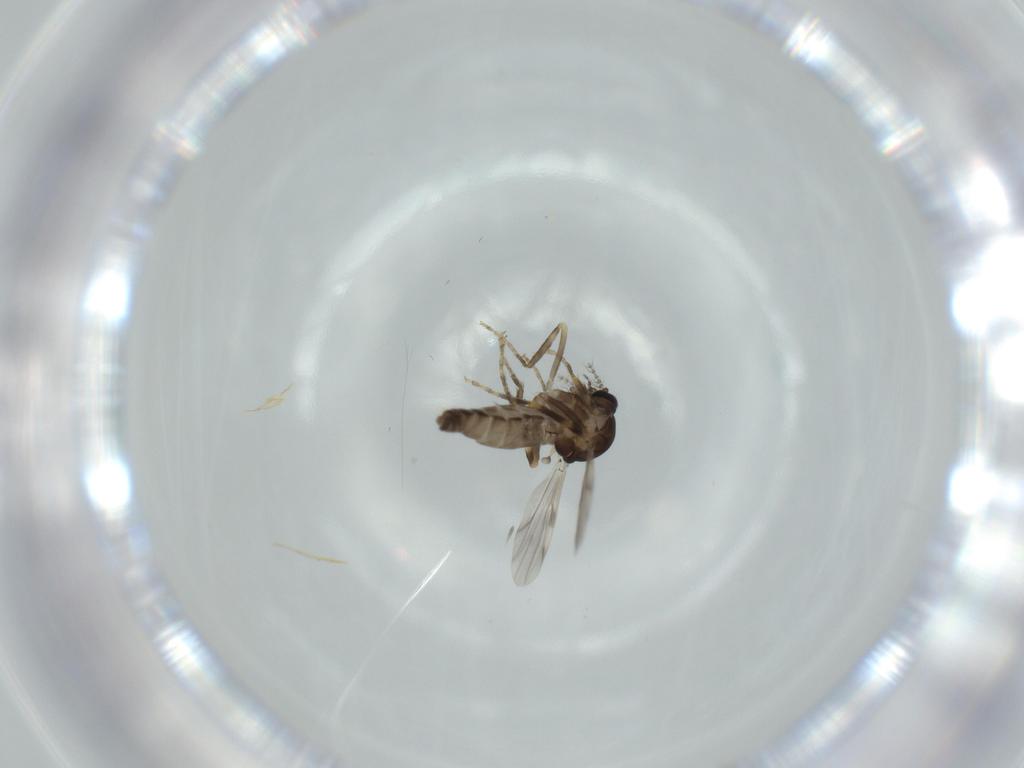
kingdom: Animalia
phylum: Arthropoda
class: Insecta
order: Diptera
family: Ceratopogonidae
